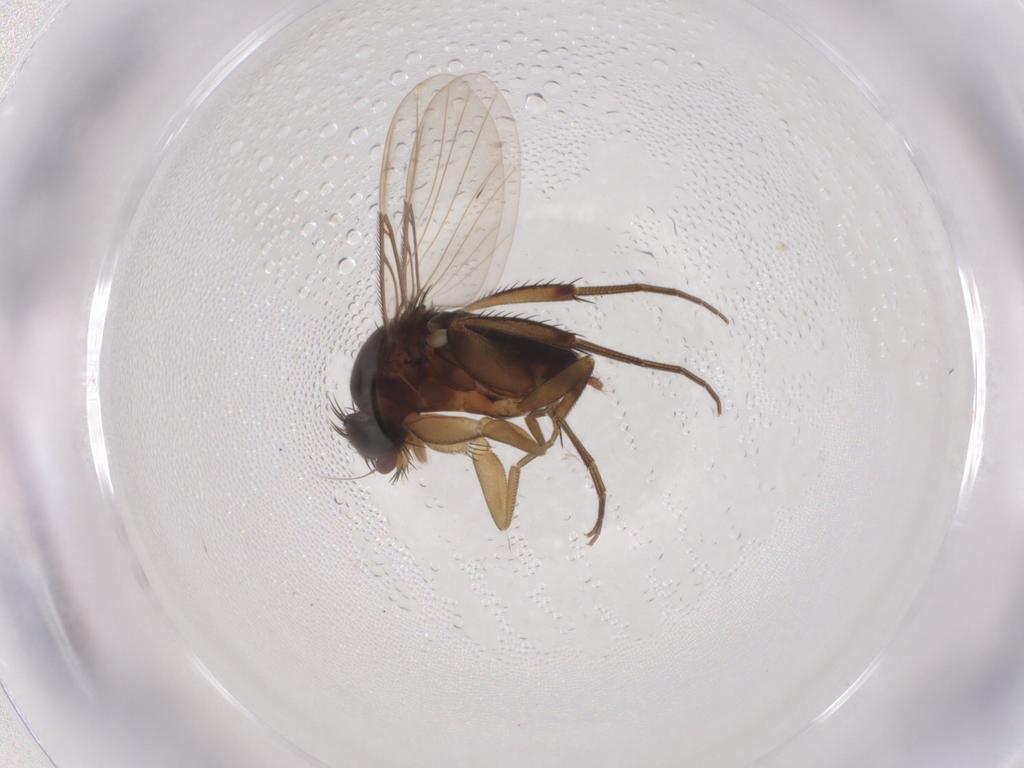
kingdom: Animalia
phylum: Arthropoda
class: Insecta
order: Diptera
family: Phoridae
